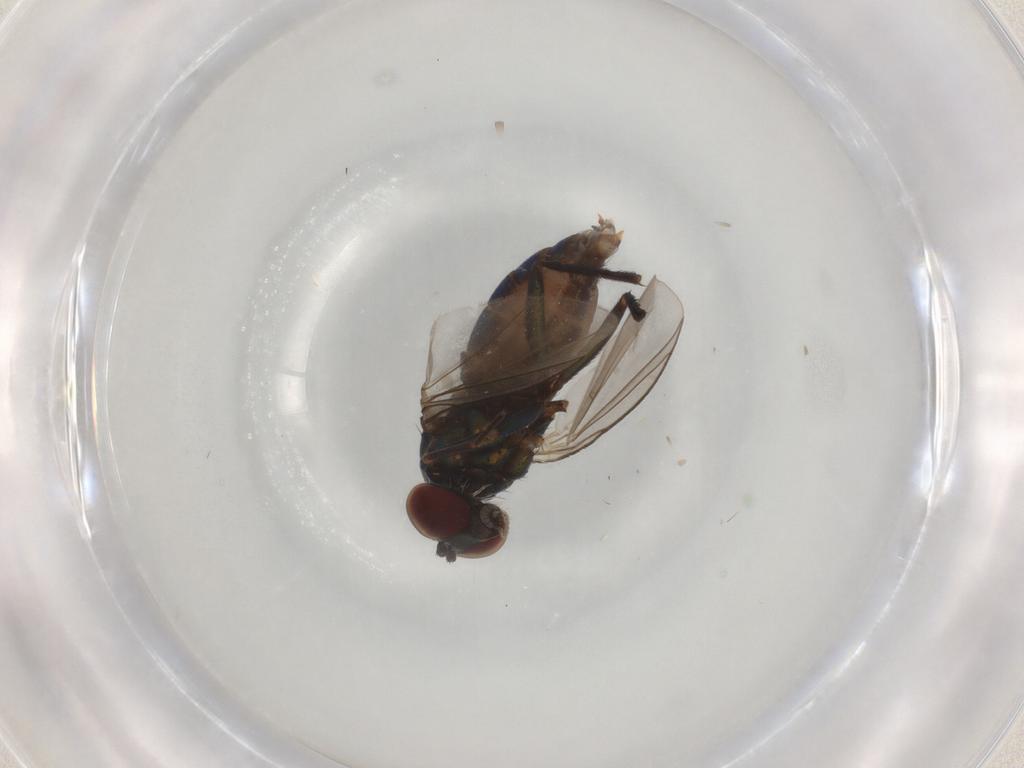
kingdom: Animalia
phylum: Arthropoda
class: Insecta
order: Diptera
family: Dolichopodidae
